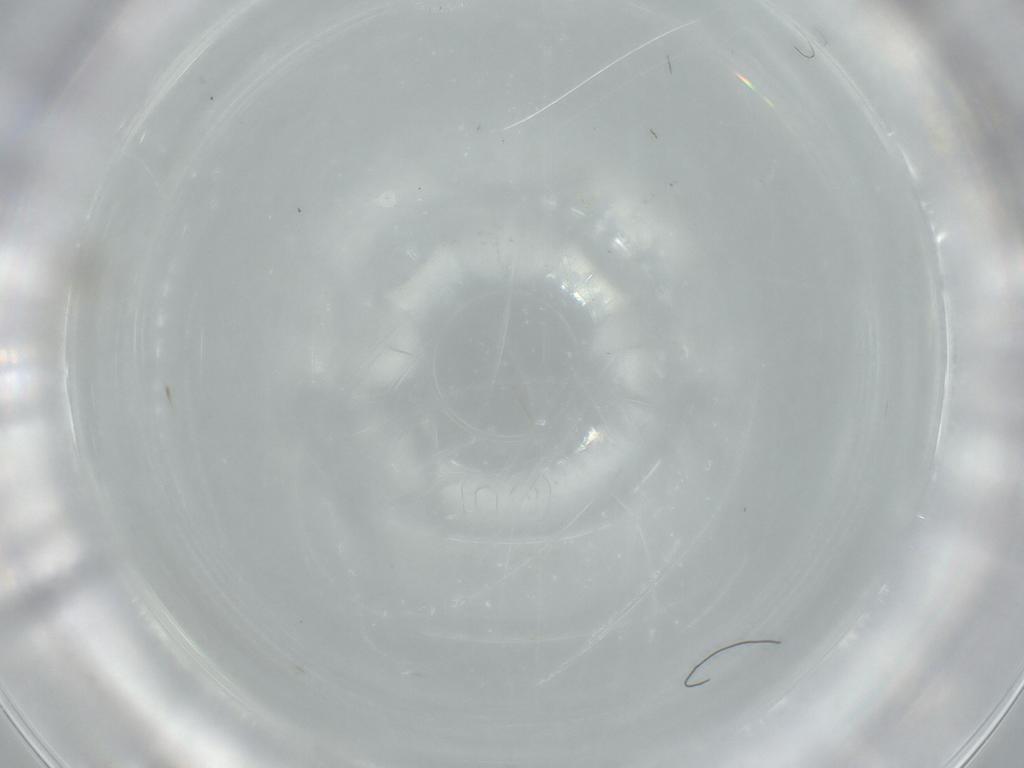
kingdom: Animalia
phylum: Arthropoda
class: Insecta
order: Diptera
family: Cecidomyiidae
